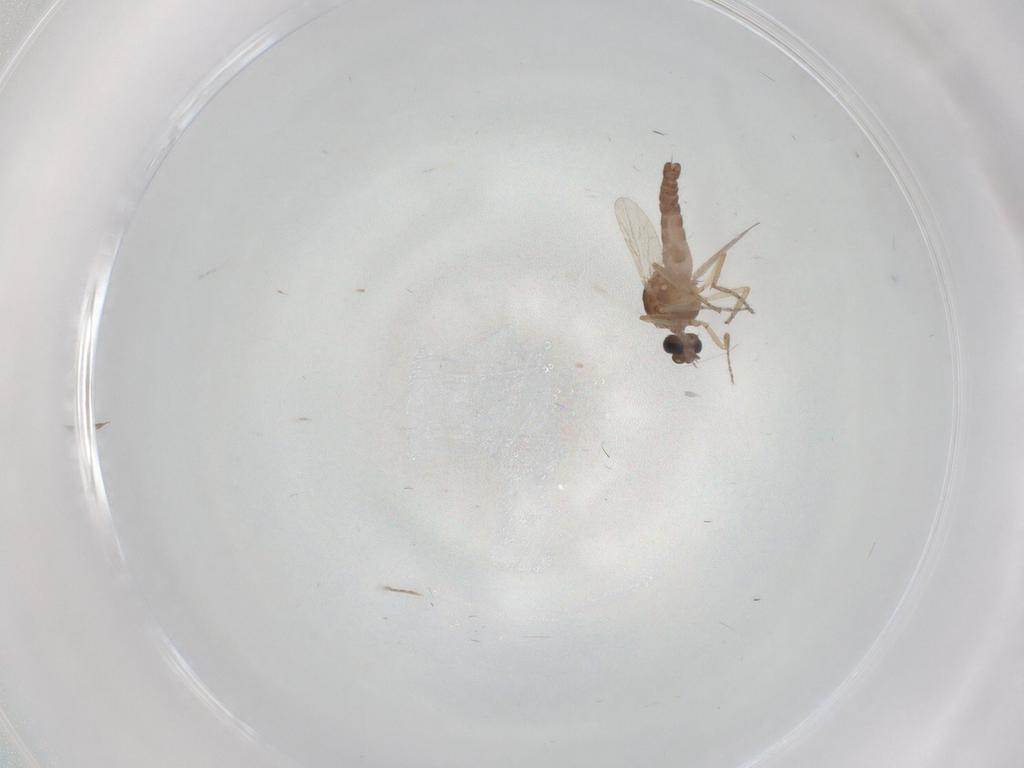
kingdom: Animalia
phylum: Arthropoda
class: Insecta
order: Diptera
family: Ceratopogonidae
